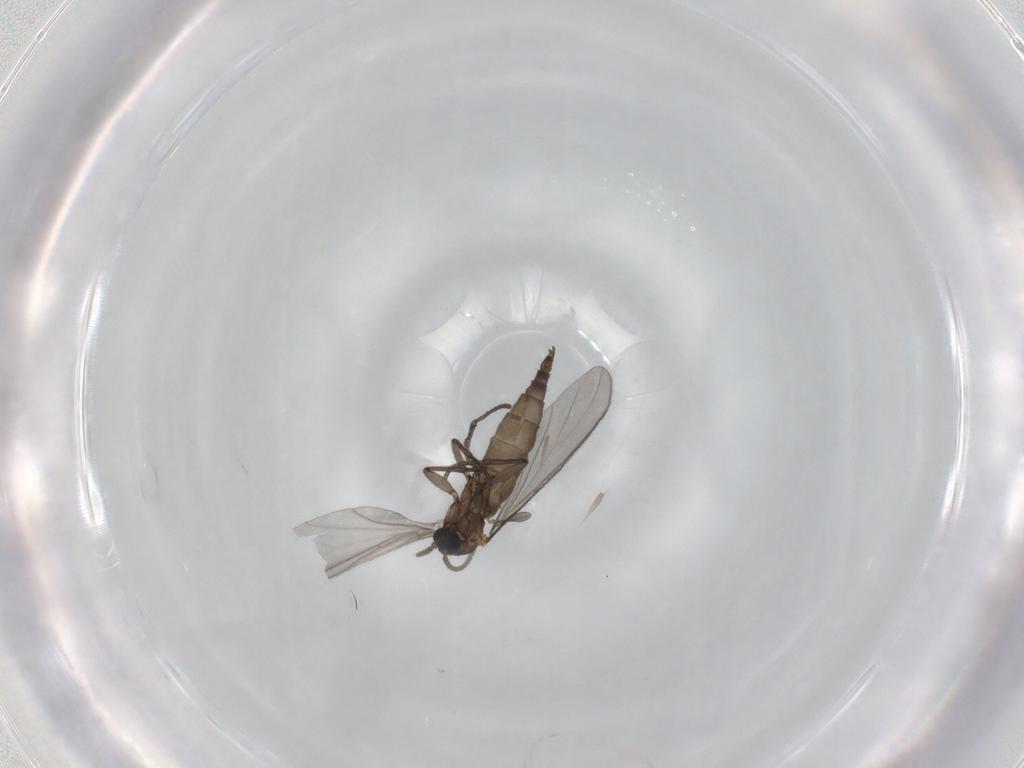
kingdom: Animalia
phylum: Arthropoda
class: Insecta
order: Diptera
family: Sciaridae
